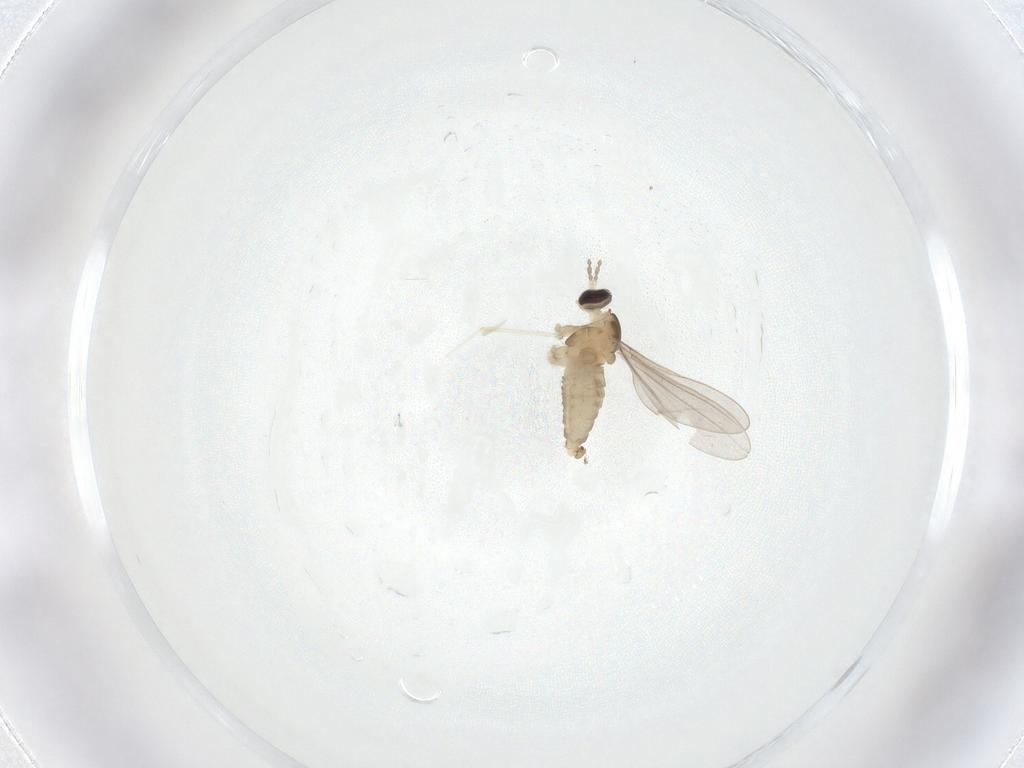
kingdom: Animalia
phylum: Arthropoda
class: Insecta
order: Diptera
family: Cecidomyiidae
